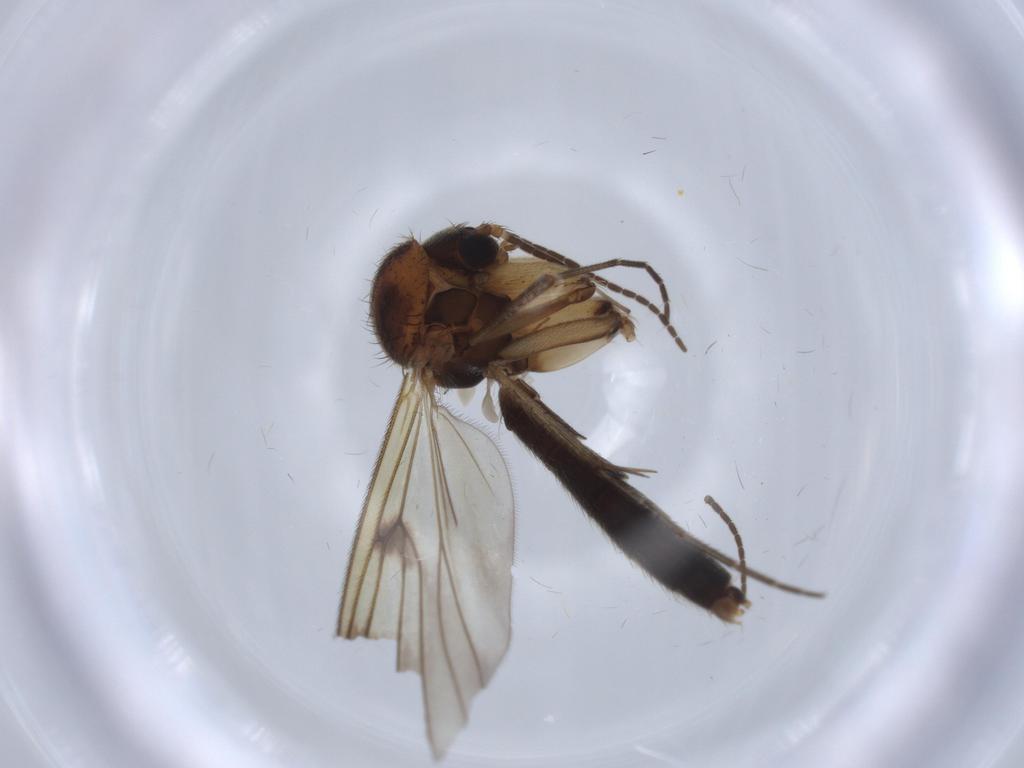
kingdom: Animalia
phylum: Arthropoda
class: Insecta
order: Diptera
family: Mycetophilidae
